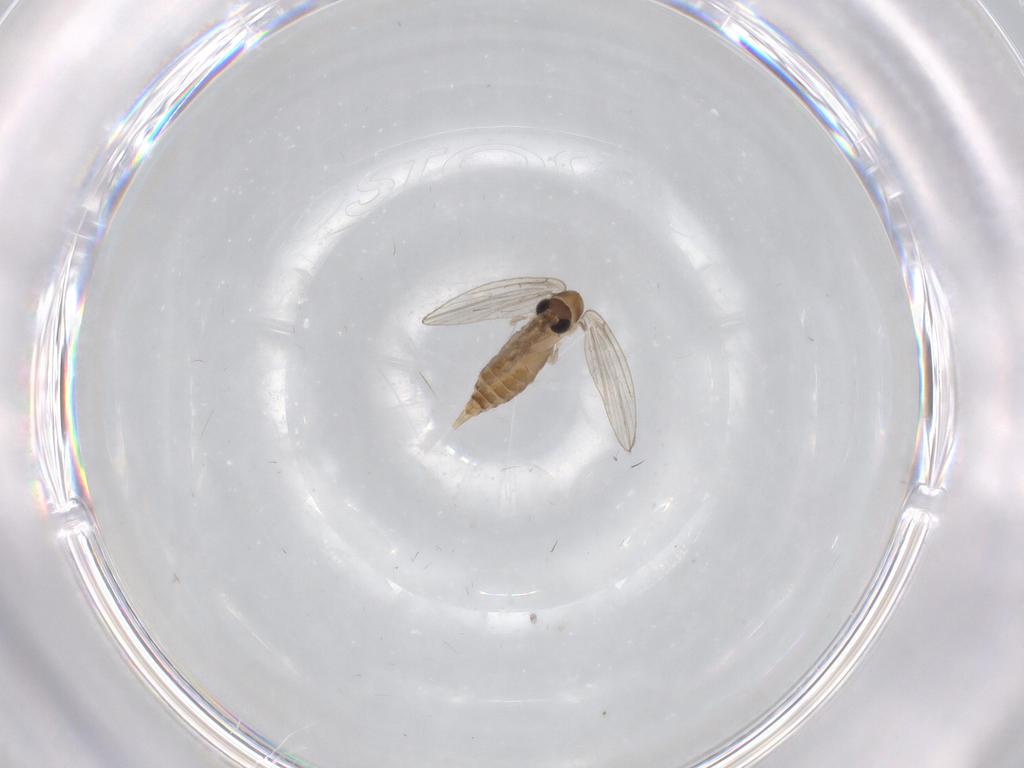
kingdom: Animalia
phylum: Arthropoda
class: Insecta
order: Diptera
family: Psychodidae
